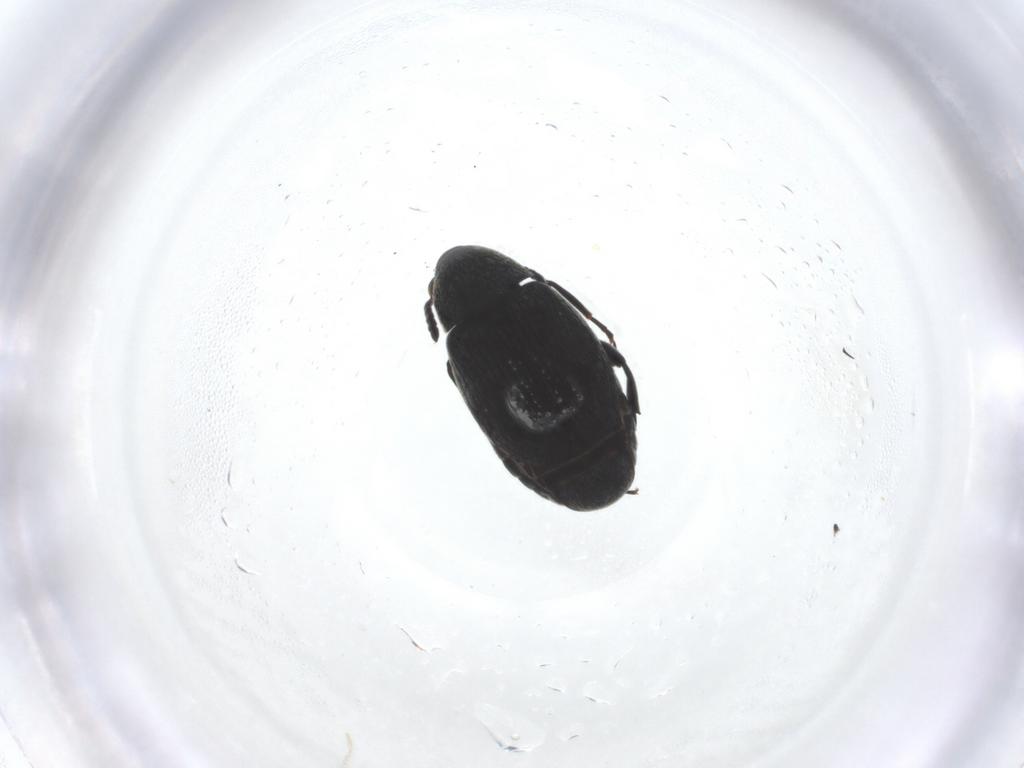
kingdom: Animalia
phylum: Arthropoda
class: Insecta
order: Coleoptera
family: Chrysomelidae
